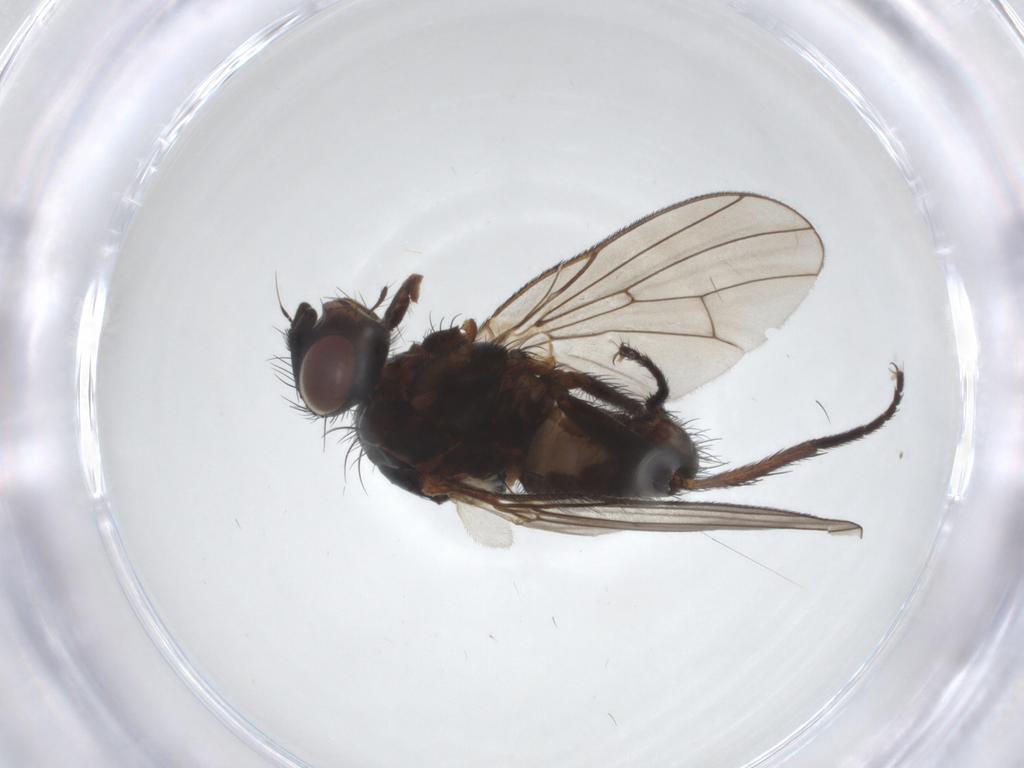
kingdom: Animalia
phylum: Arthropoda
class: Insecta
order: Diptera
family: Anthomyiidae
